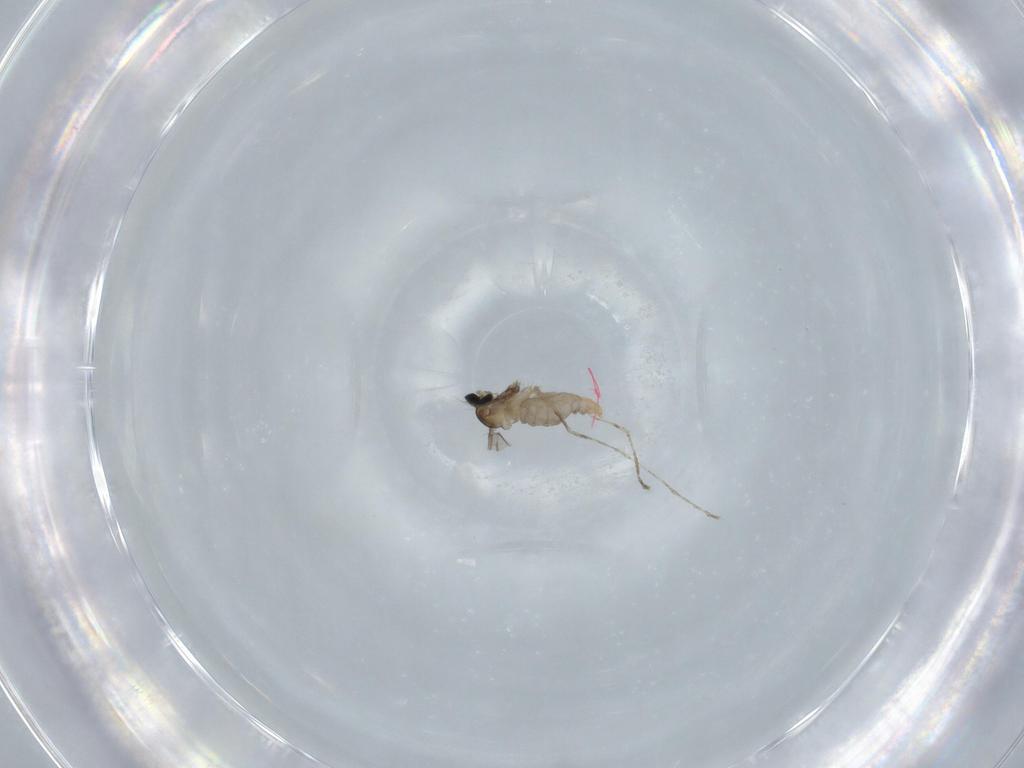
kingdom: Animalia
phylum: Arthropoda
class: Insecta
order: Diptera
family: Cecidomyiidae
